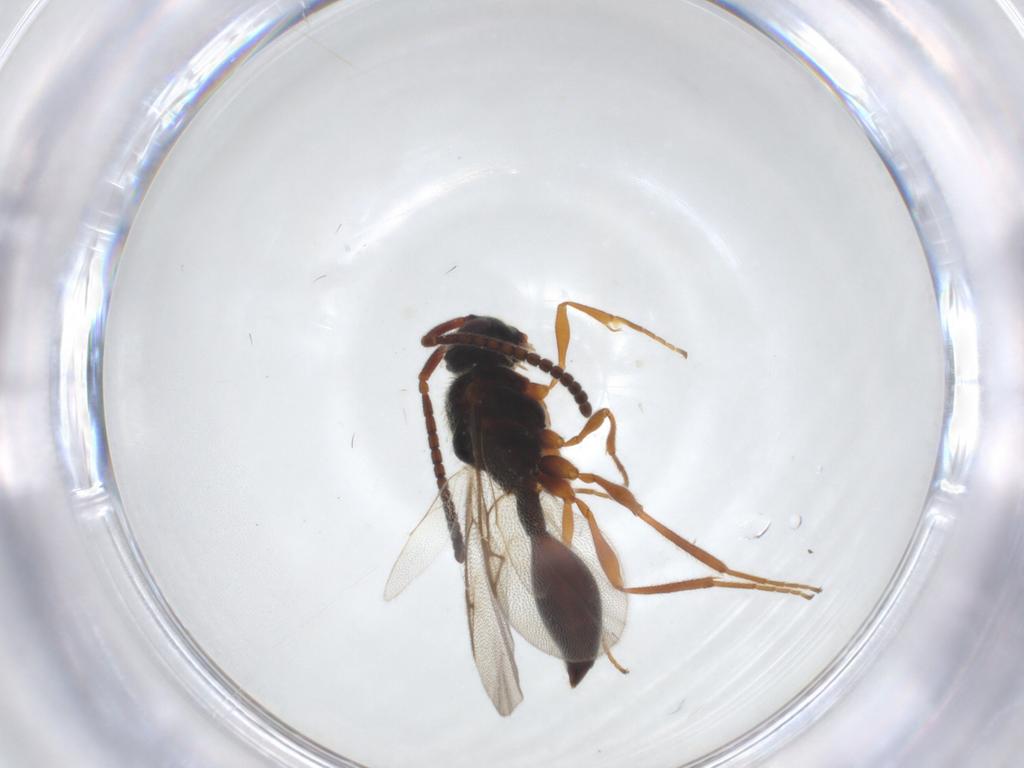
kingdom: Animalia
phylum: Arthropoda
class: Insecta
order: Hymenoptera
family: Diapriidae
